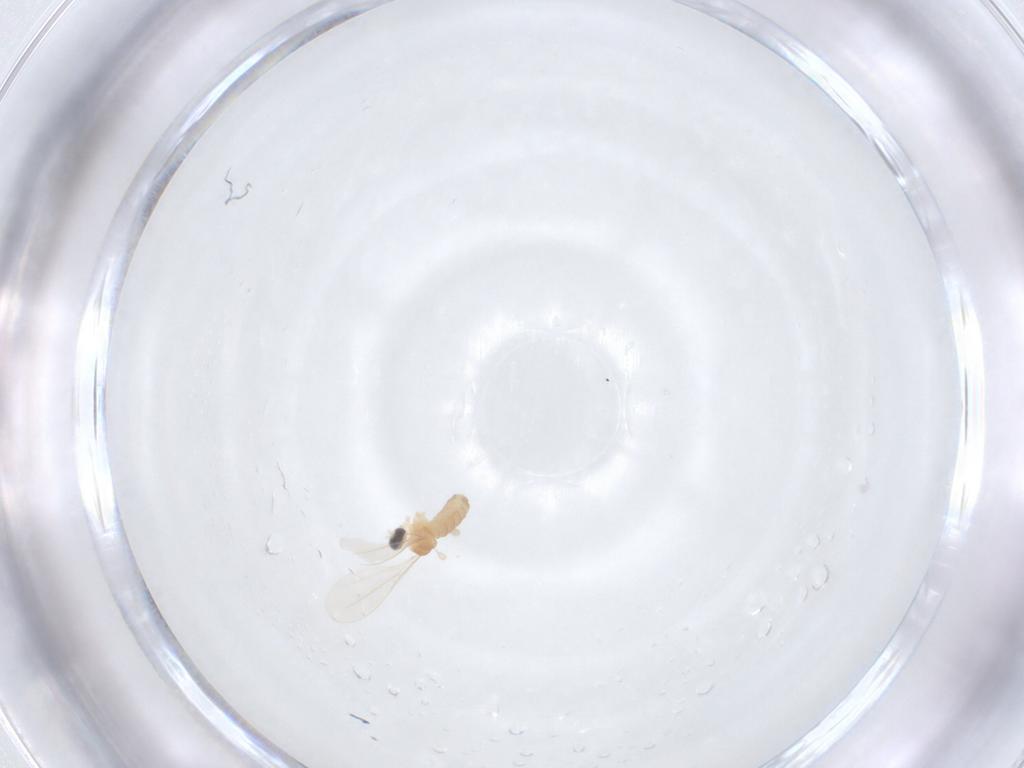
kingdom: Animalia
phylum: Arthropoda
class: Insecta
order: Diptera
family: Cecidomyiidae
